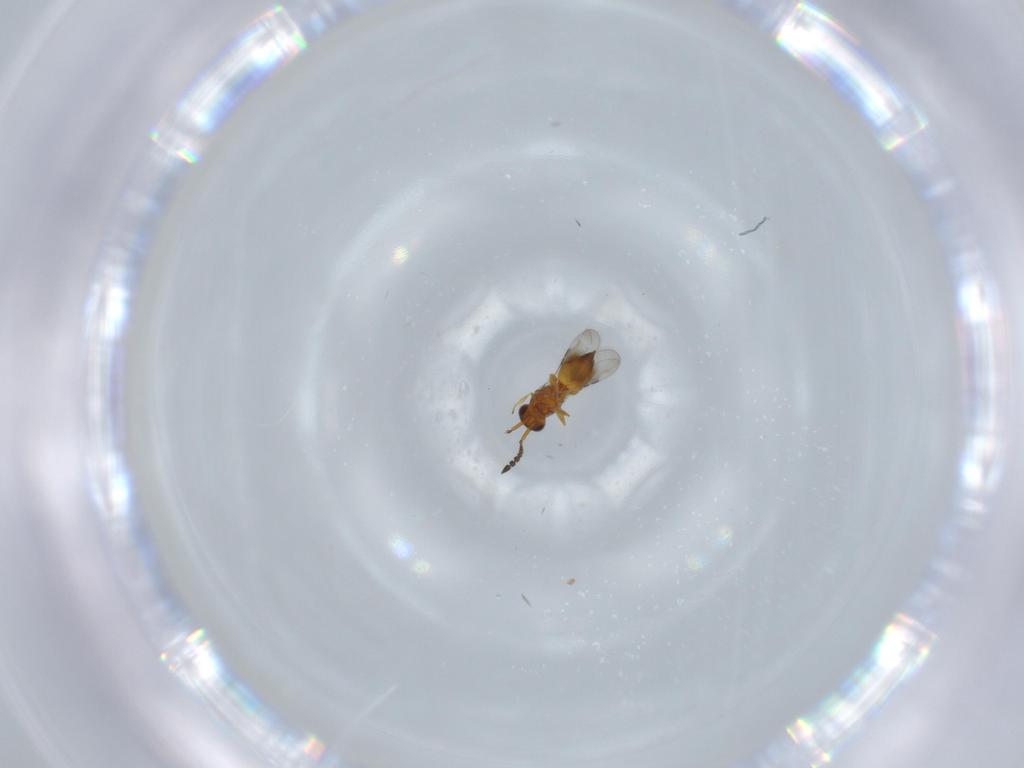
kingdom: Animalia
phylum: Arthropoda
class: Insecta
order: Hymenoptera
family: Ceraphronidae
